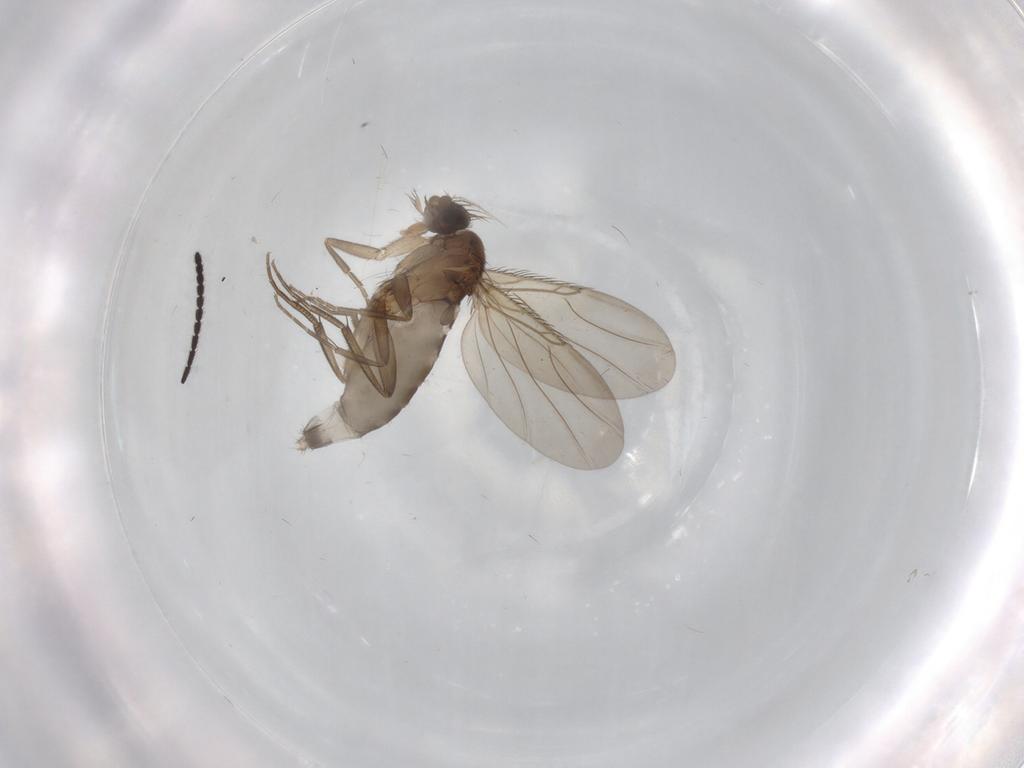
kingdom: Animalia
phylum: Arthropoda
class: Insecta
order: Diptera
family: Phoridae
